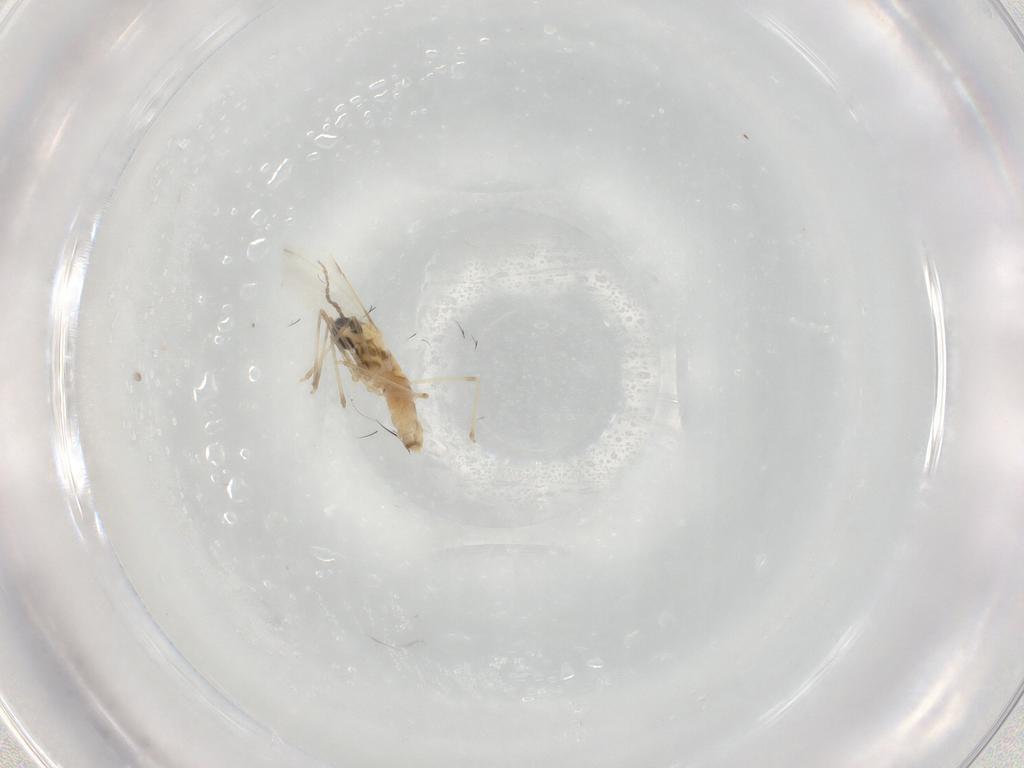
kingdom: Animalia
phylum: Arthropoda
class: Insecta
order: Diptera
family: Cecidomyiidae
